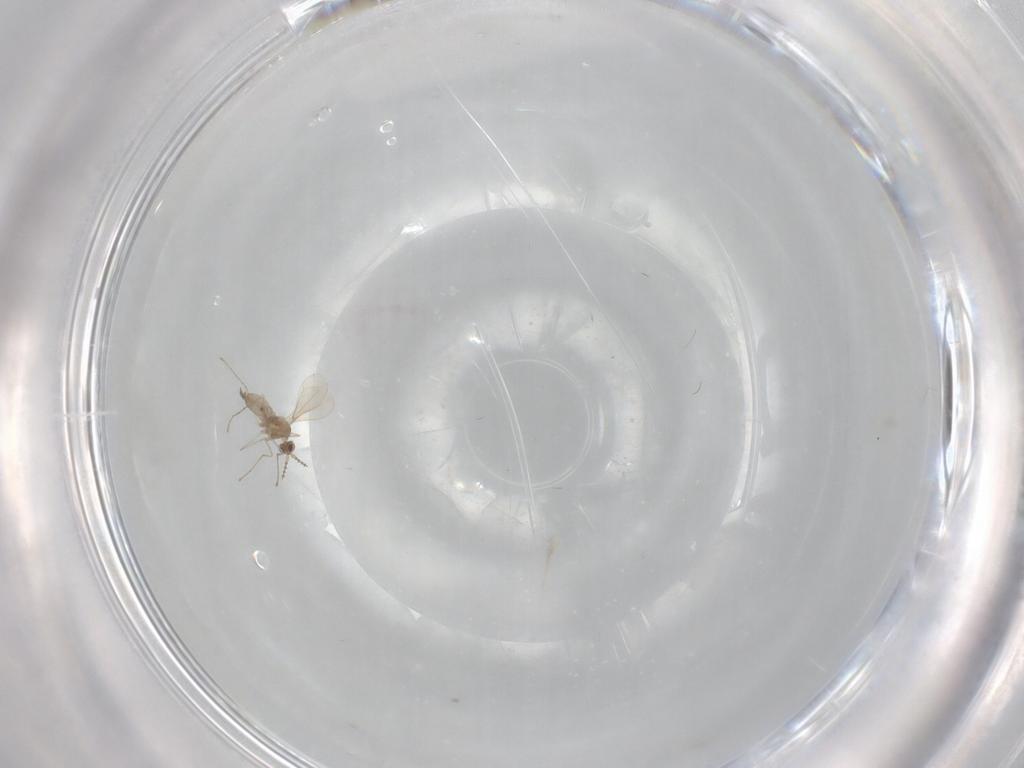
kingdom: Animalia
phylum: Arthropoda
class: Insecta
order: Diptera
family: Cecidomyiidae
